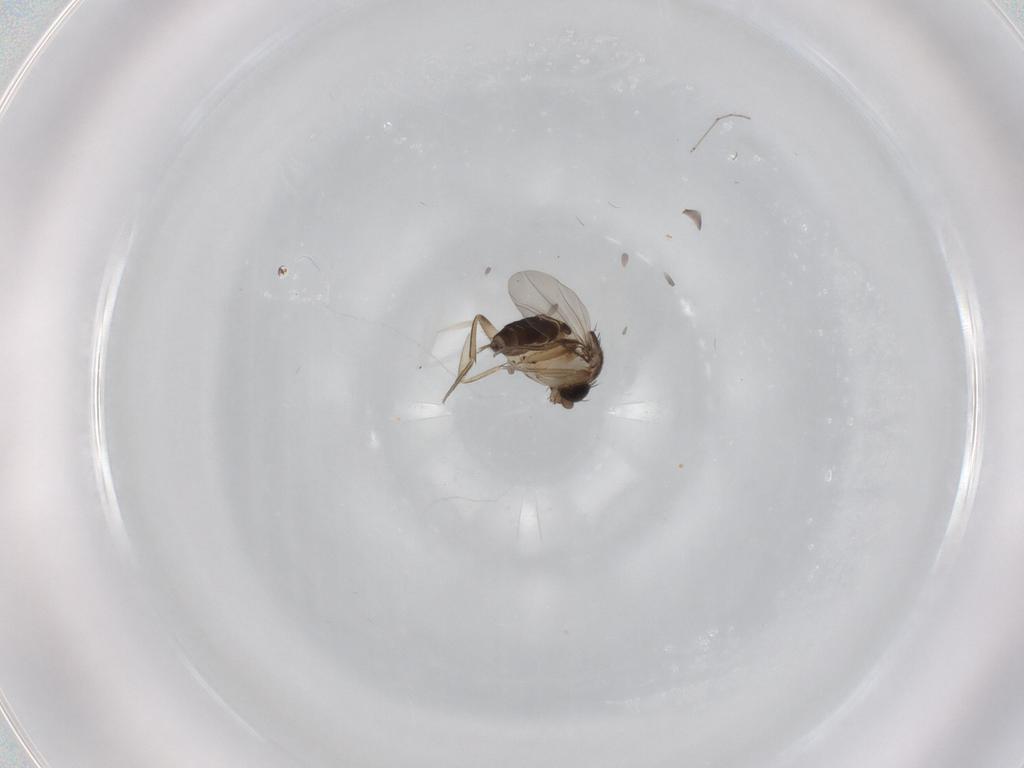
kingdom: Animalia
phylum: Arthropoda
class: Insecta
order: Diptera
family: Phoridae
